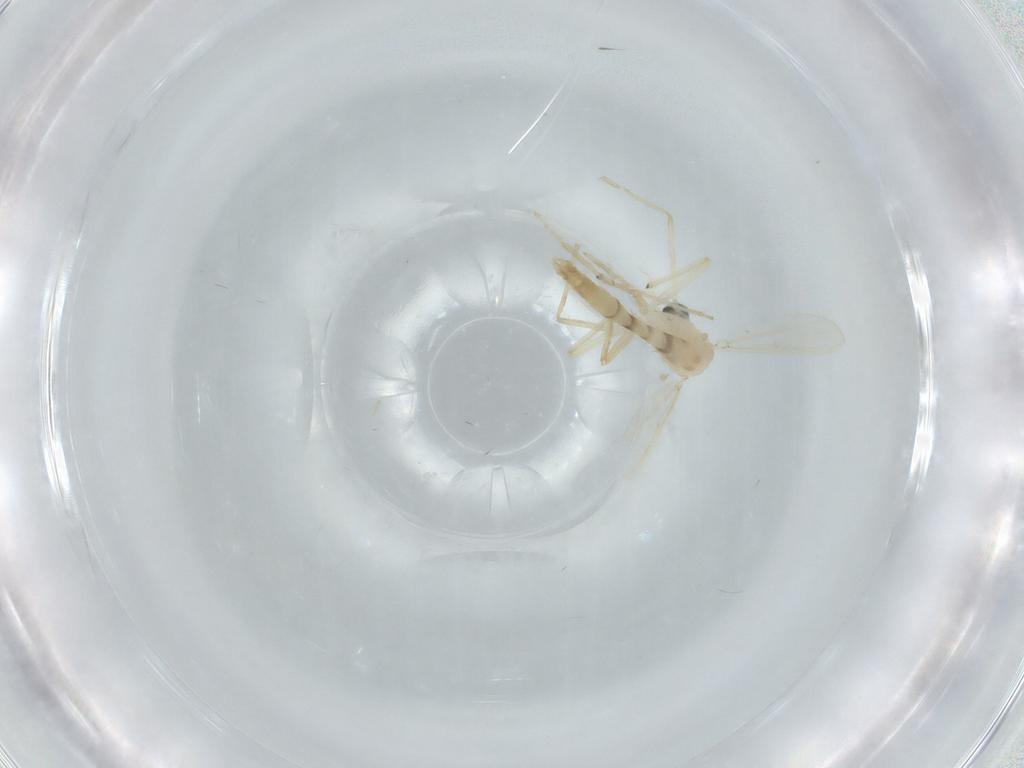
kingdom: Animalia
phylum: Arthropoda
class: Insecta
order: Diptera
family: Chironomidae
